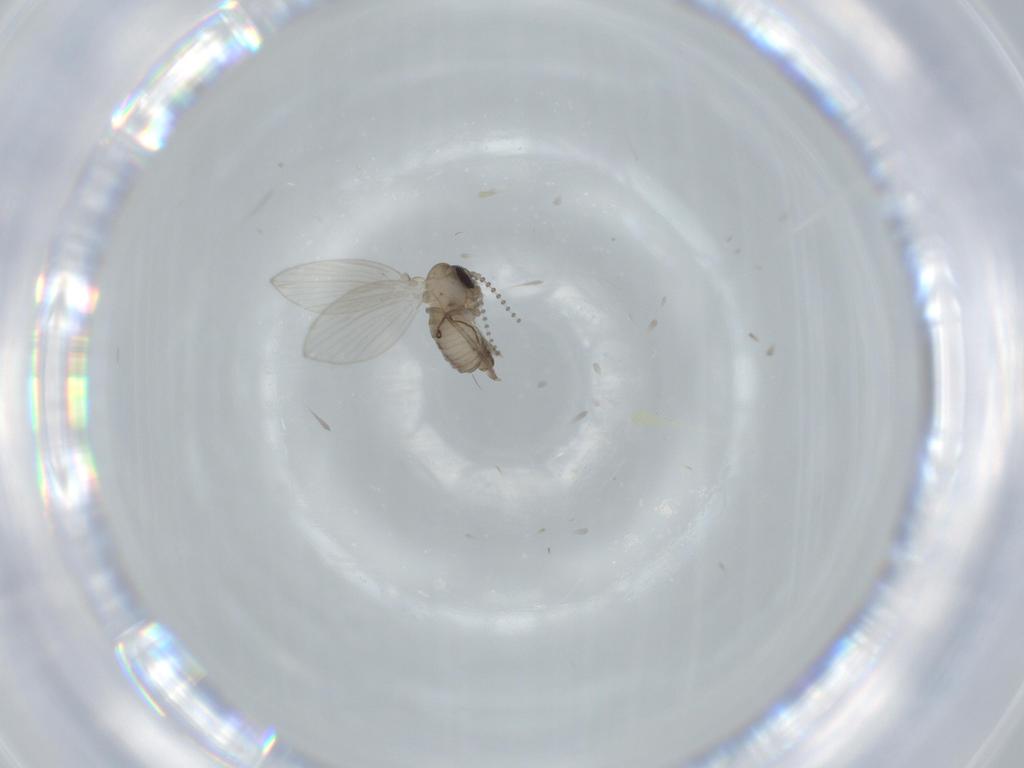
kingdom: Animalia
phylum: Arthropoda
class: Insecta
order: Diptera
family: Psychodidae
